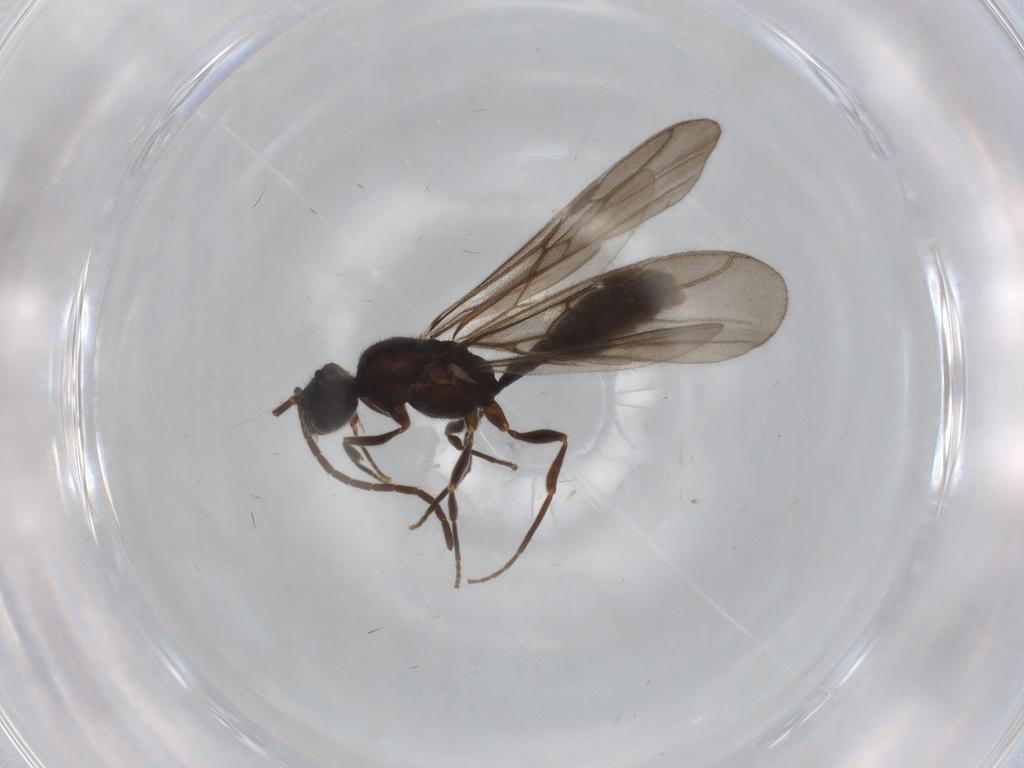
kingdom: Animalia
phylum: Arthropoda
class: Insecta
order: Hymenoptera
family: Formicidae
